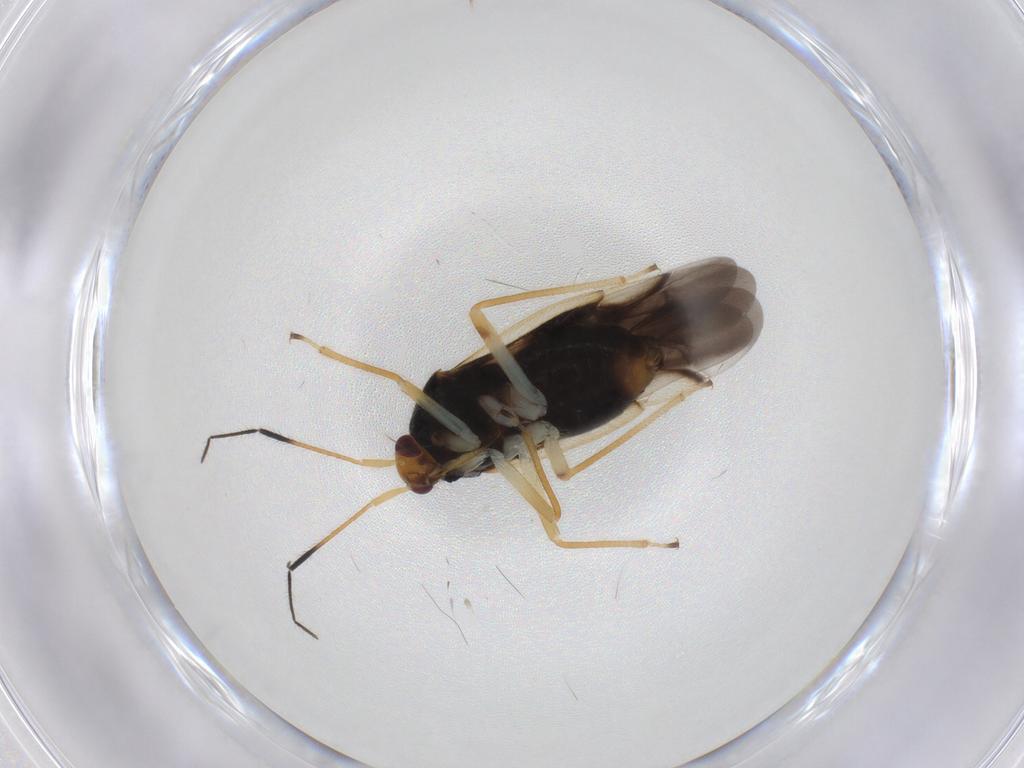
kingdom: Animalia
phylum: Arthropoda
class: Insecta
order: Hemiptera
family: Miridae
